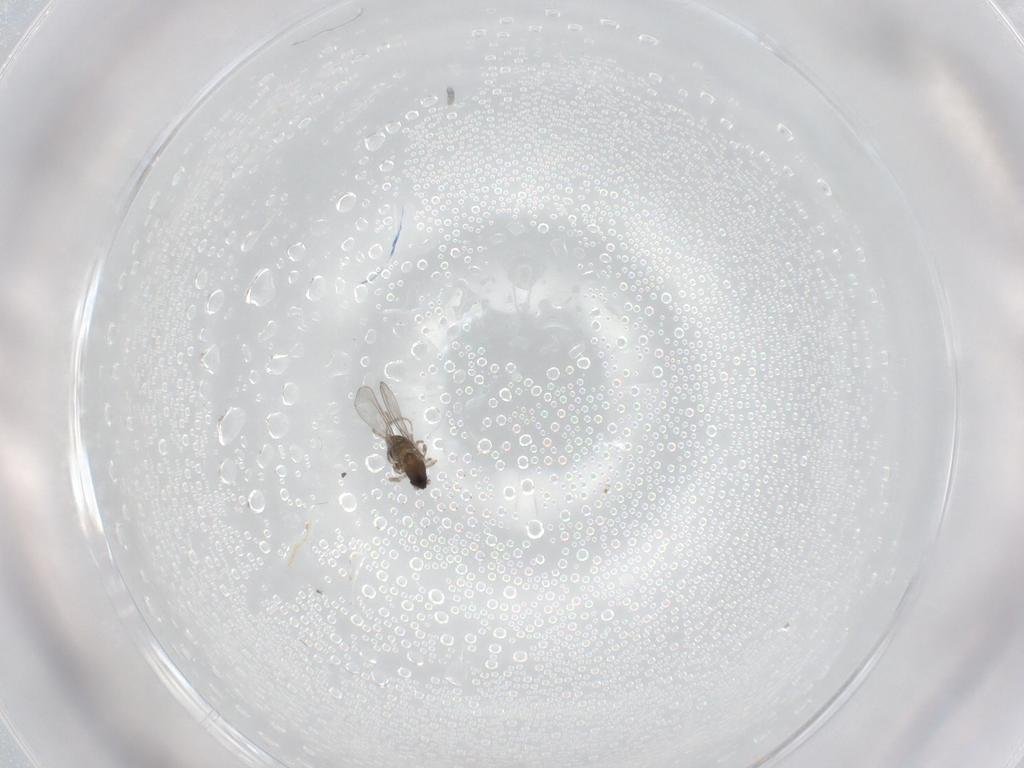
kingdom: Animalia
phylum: Arthropoda
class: Insecta
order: Diptera
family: Cecidomyiidae
